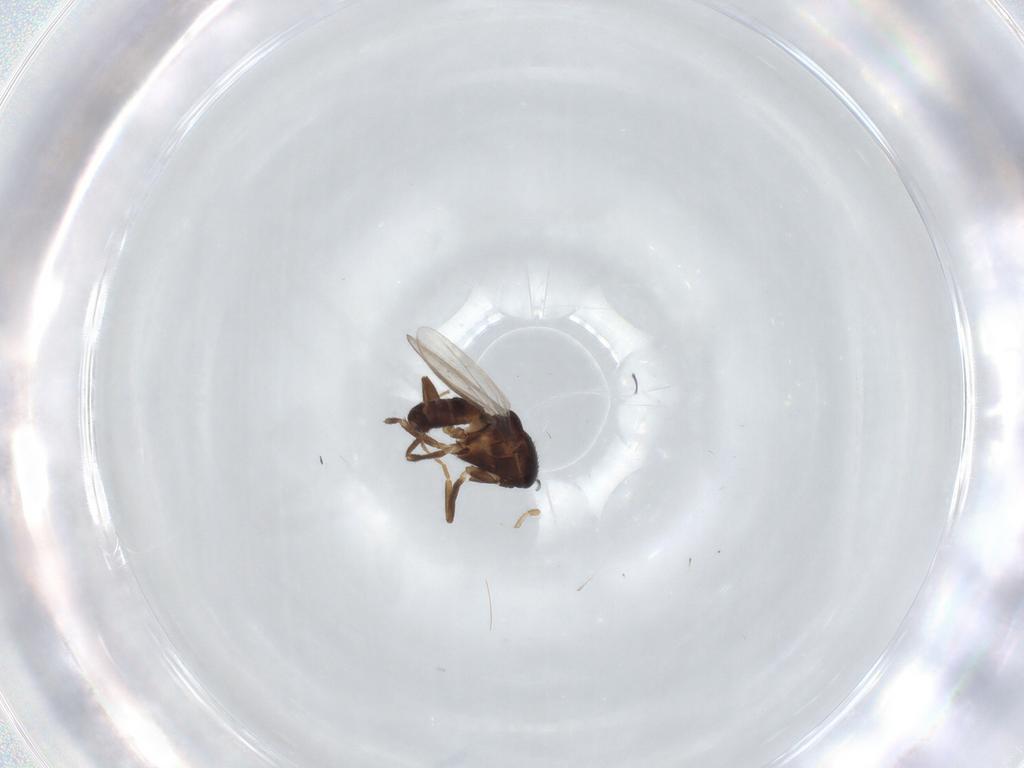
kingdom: Animalia
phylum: Arthropoda
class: Insecta
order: Diptera
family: Sphaeroceridae
